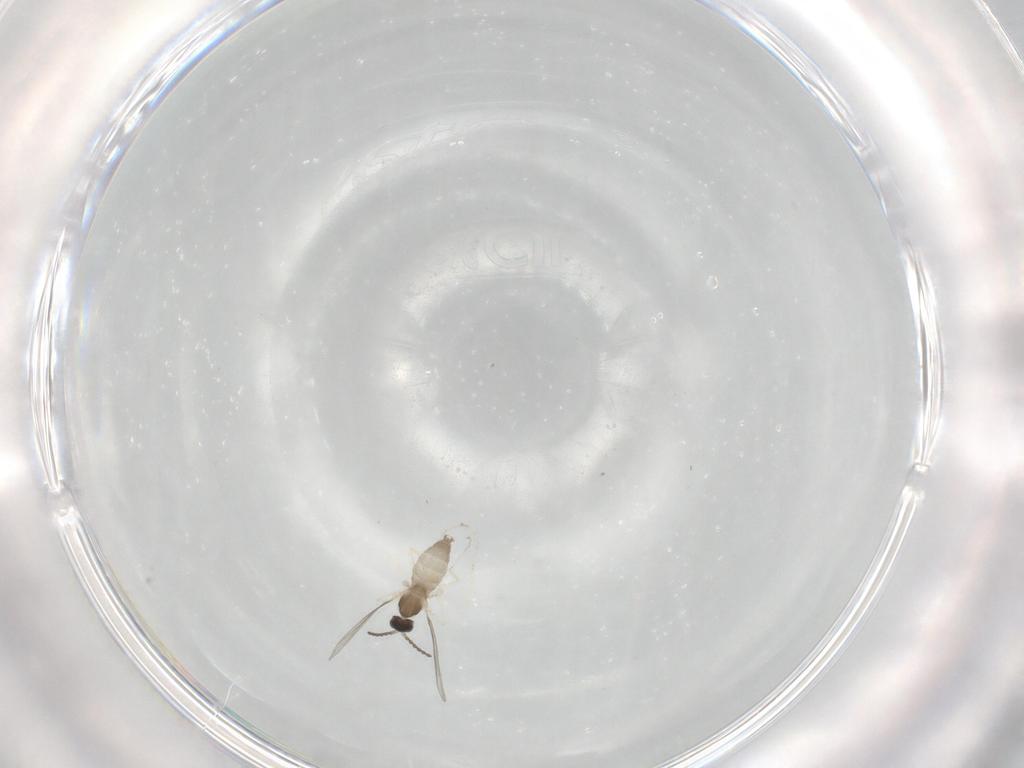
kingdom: Animalia
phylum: Arthropoda
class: Insecta
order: Diptera
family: Cecidomyiidae
